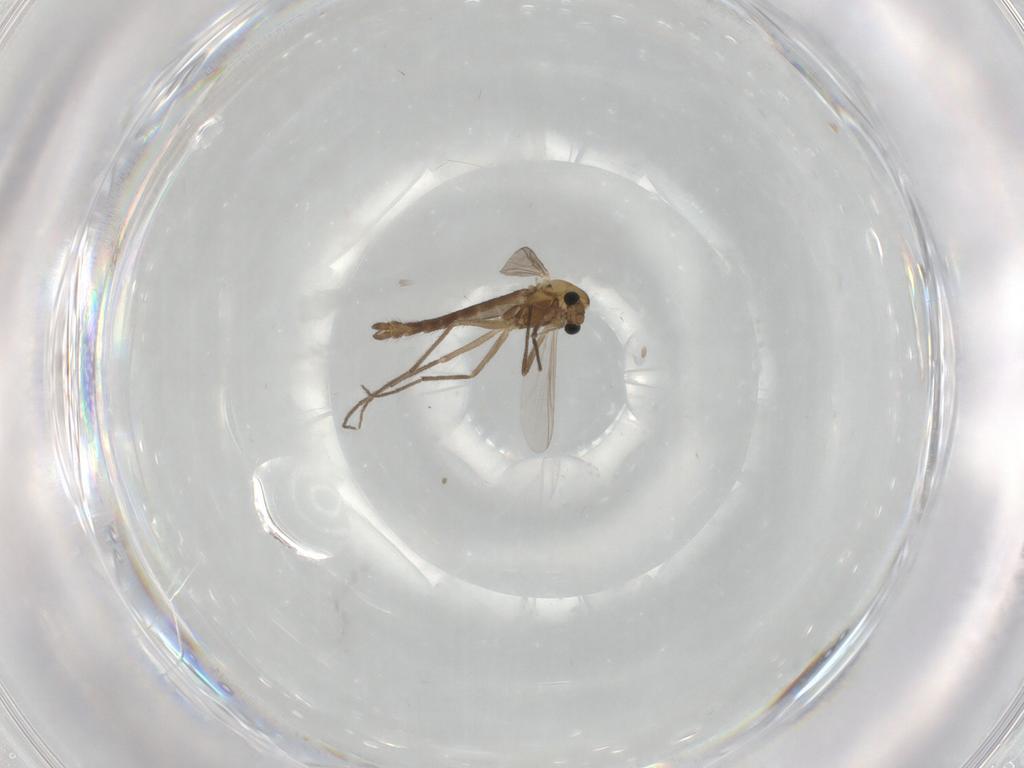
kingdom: Animalia
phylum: Arthropoda
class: Insecta
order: Diptera
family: Chironomidae
